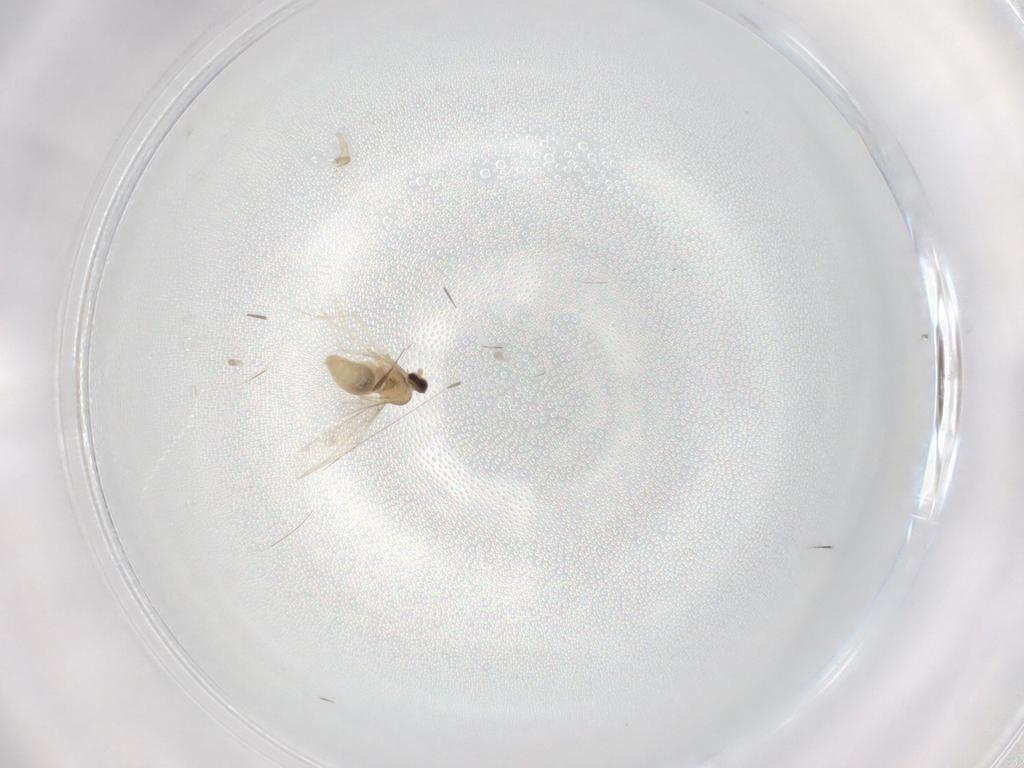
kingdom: Animalia
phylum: Arthropoda
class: Insecta
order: Diptera
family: Cecidomyiidae
